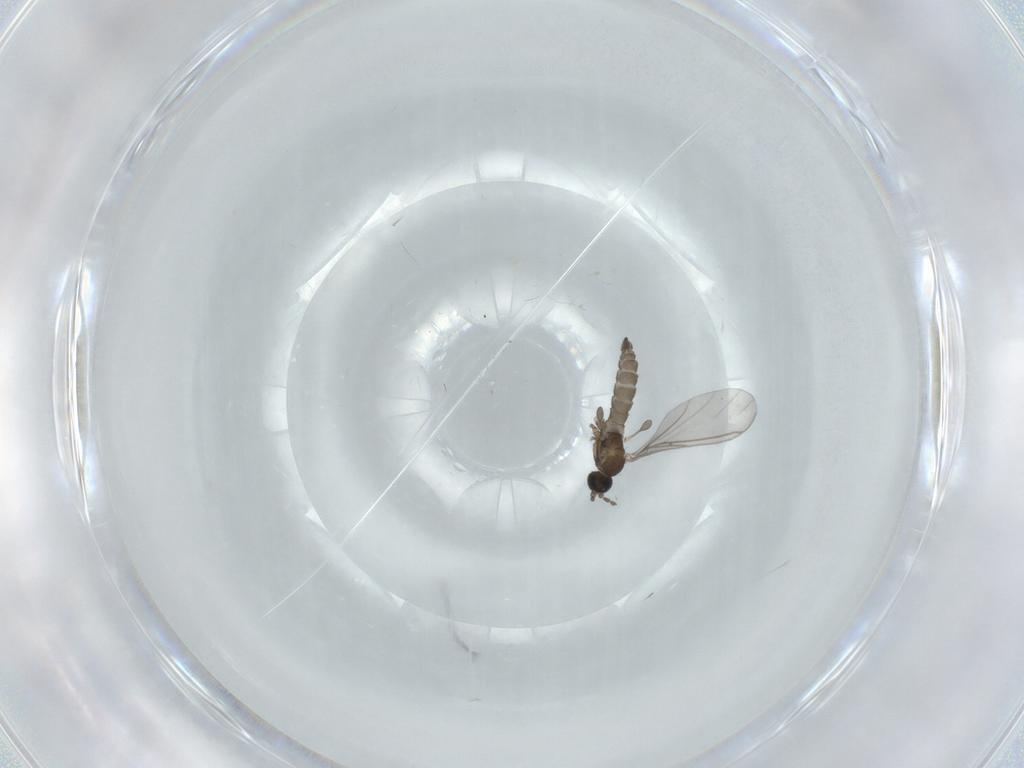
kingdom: Animalia
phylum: Arthropoda
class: Insecta
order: Diptera
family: Sciaridae
